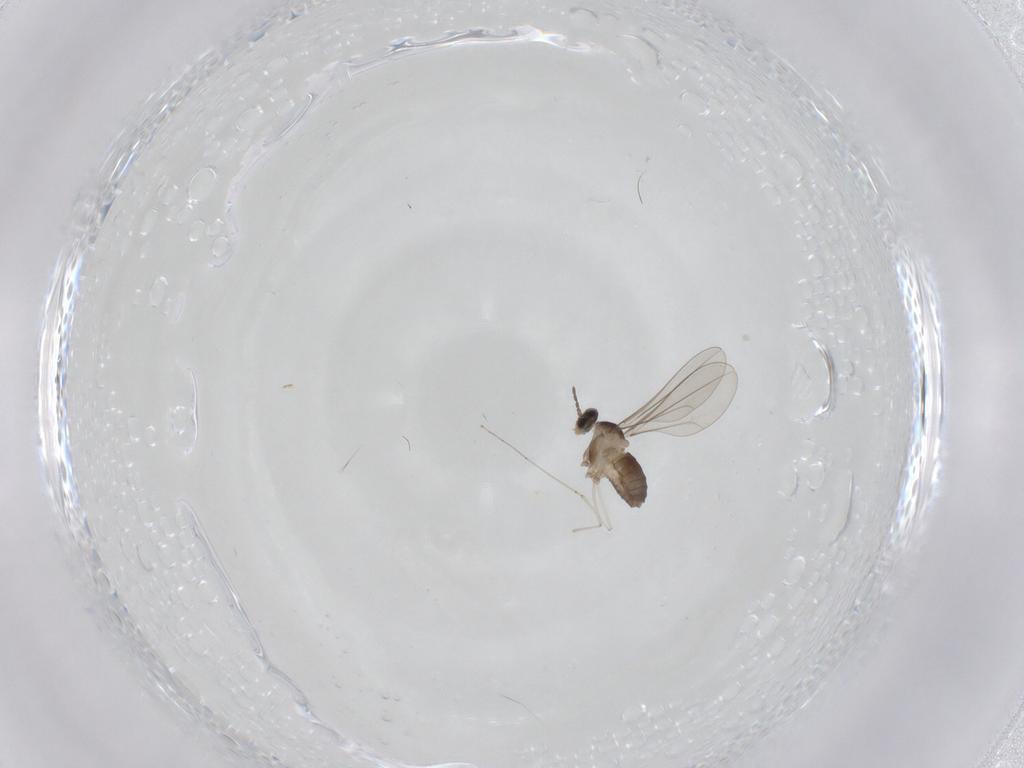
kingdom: Animalia
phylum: Arthropoda
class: Insecta
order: Diptera
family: Cecidomyiidae
